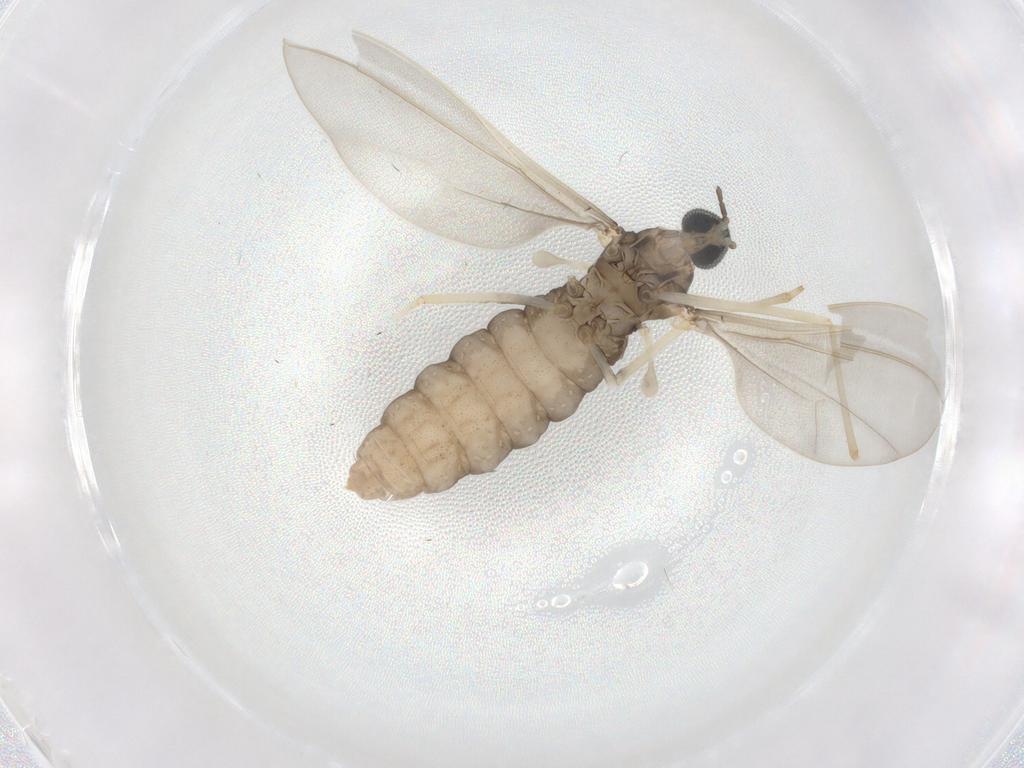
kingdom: Animalia
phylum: Arthropoda
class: Insecta
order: Diptera
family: Cecidomyiidae
